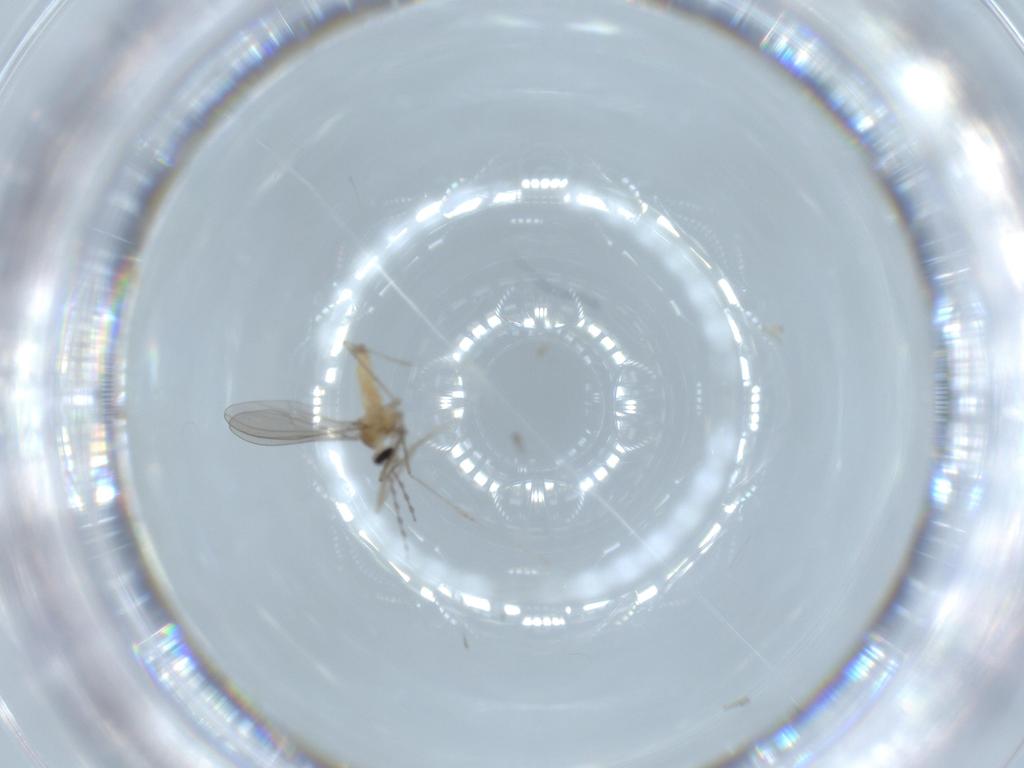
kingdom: Animalia
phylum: Arthropoda
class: Insecta
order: Diptera
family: Cecidomyiidae
